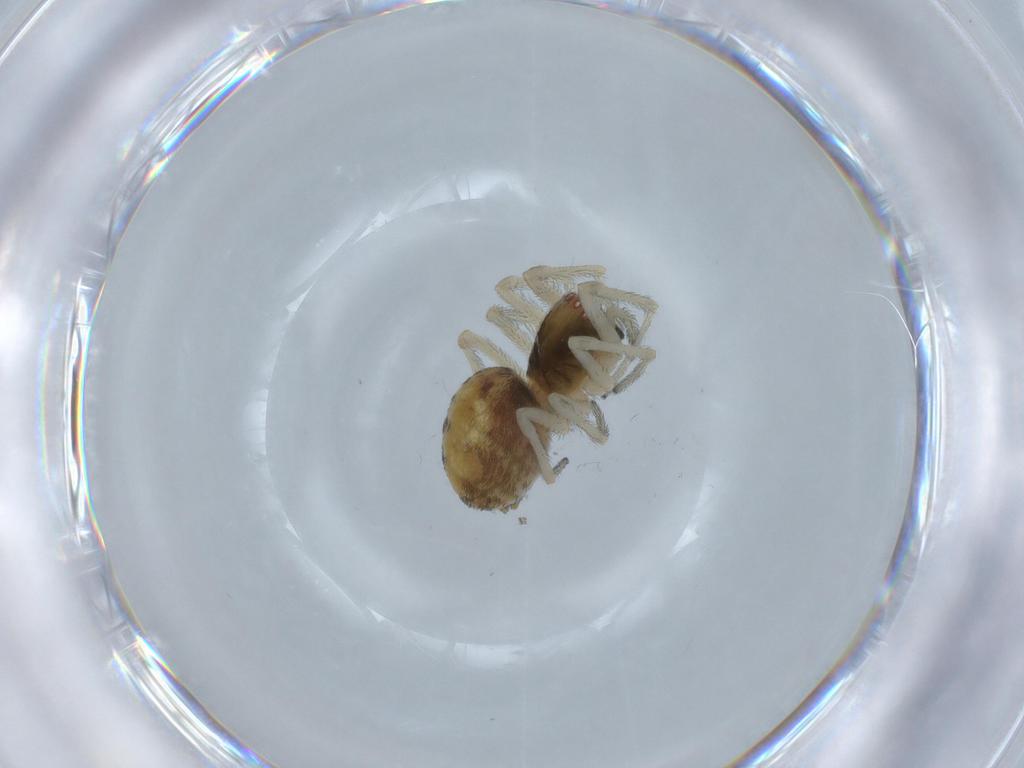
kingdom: Animalia
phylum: Arthropoda
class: Arachnida
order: Araneae
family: Dictynidae
